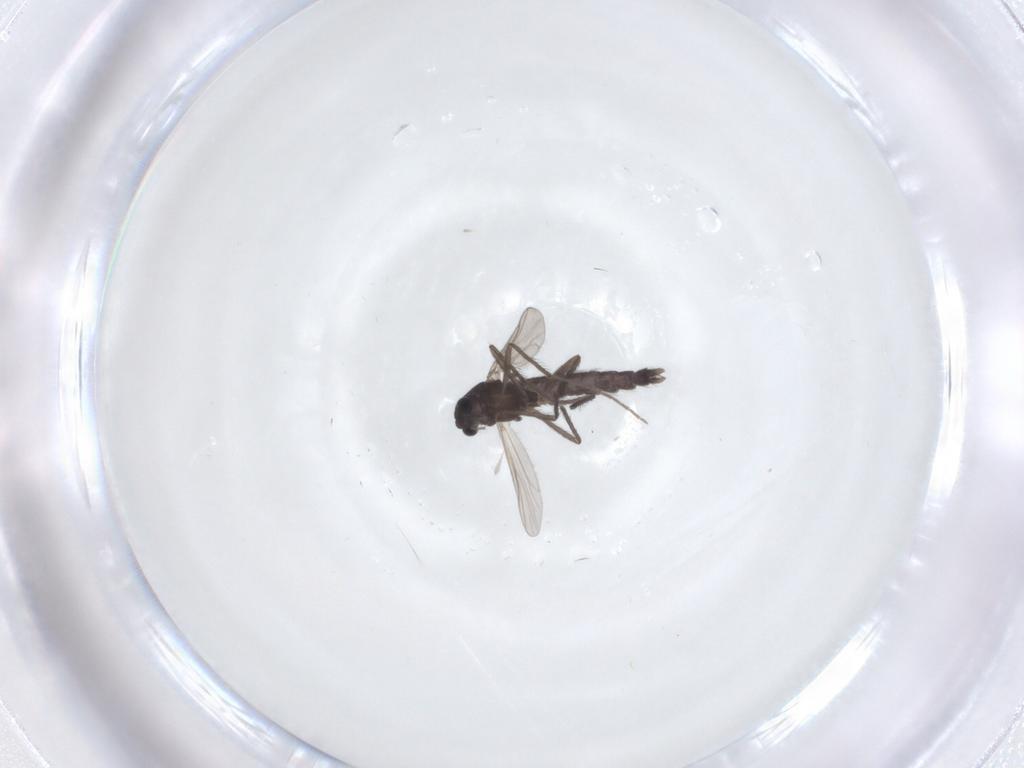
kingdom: Animalia
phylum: Arthropoda
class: Insecta
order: Diptera
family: Chironomidae
